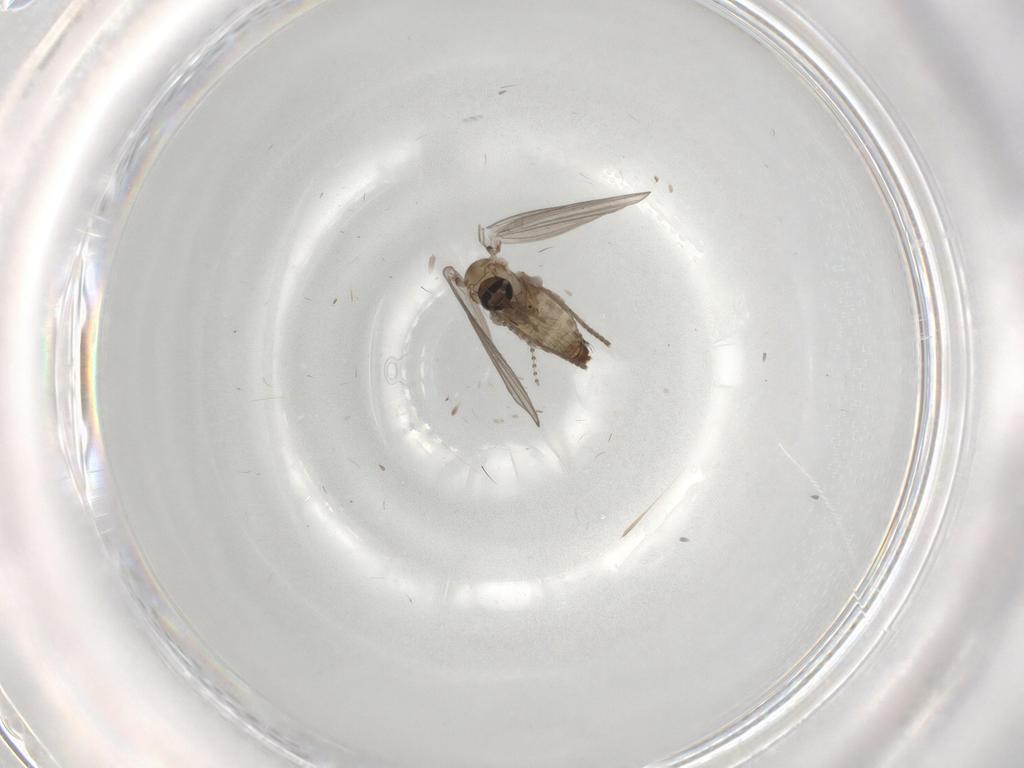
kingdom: Animalia
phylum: Arthropoda
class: Insecta
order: Diptera
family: Psychodidae
